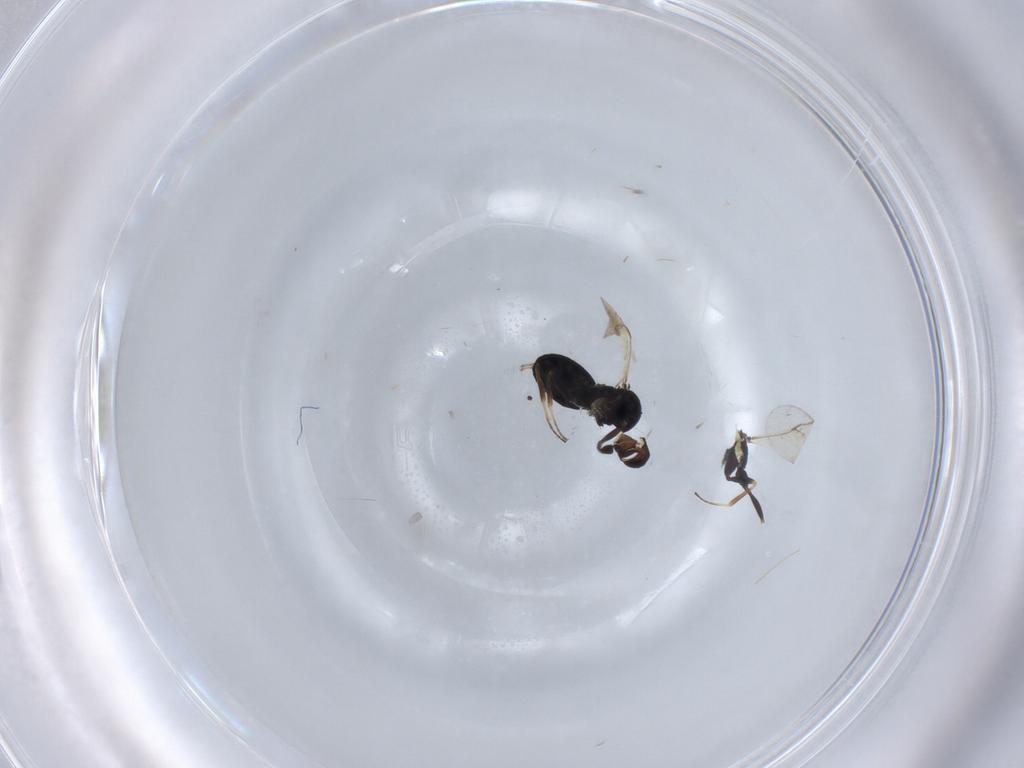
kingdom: Animalia
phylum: Arthropoda
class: Insecta
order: Hymenoptera
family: Scelionidae
